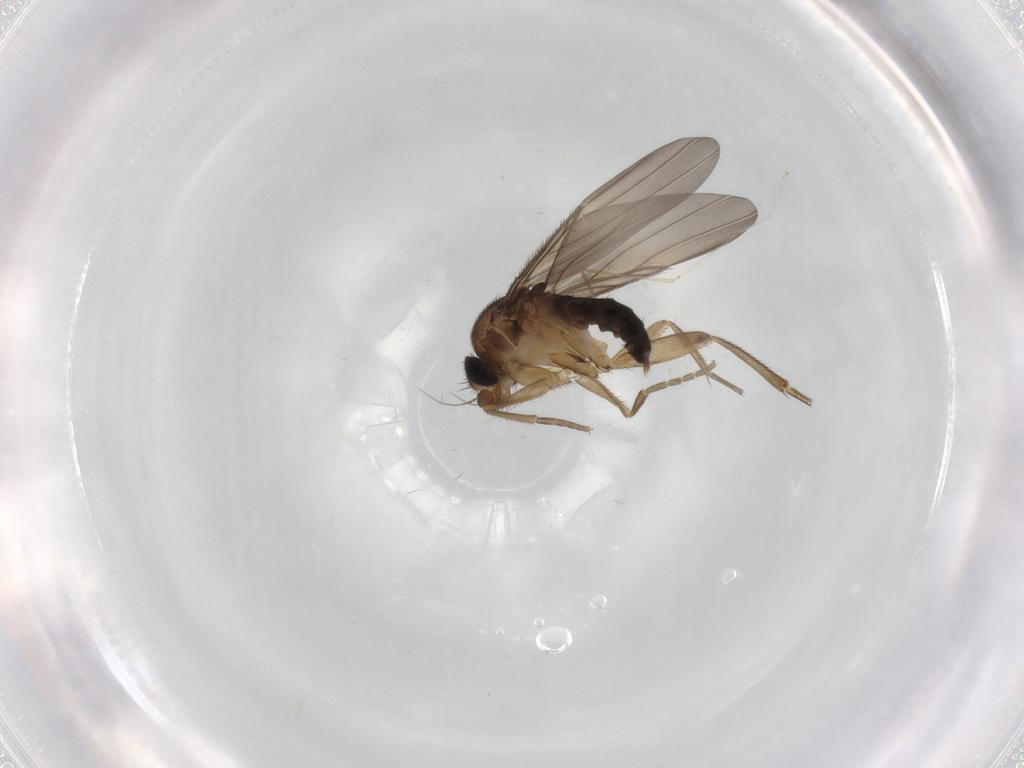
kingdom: Animalia
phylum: Arthropoda
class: Insecta
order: Diptera
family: Phoridae
